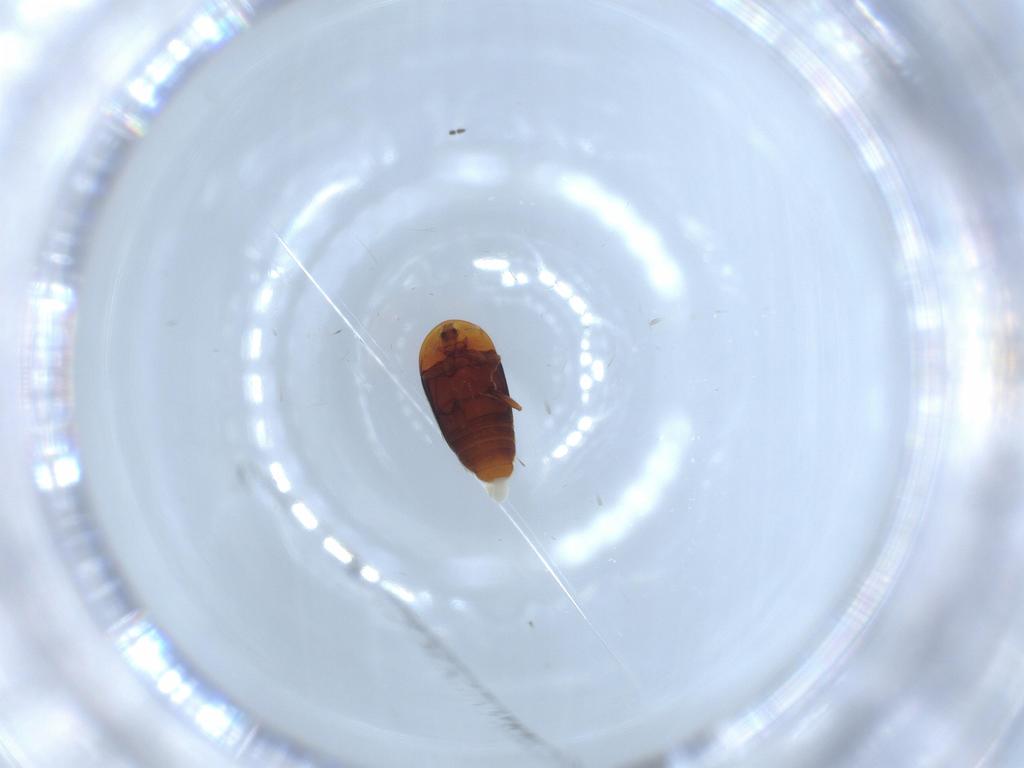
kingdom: Animalia
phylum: Arthropoda
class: Insecta
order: Coleoptera
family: Corylophidae
